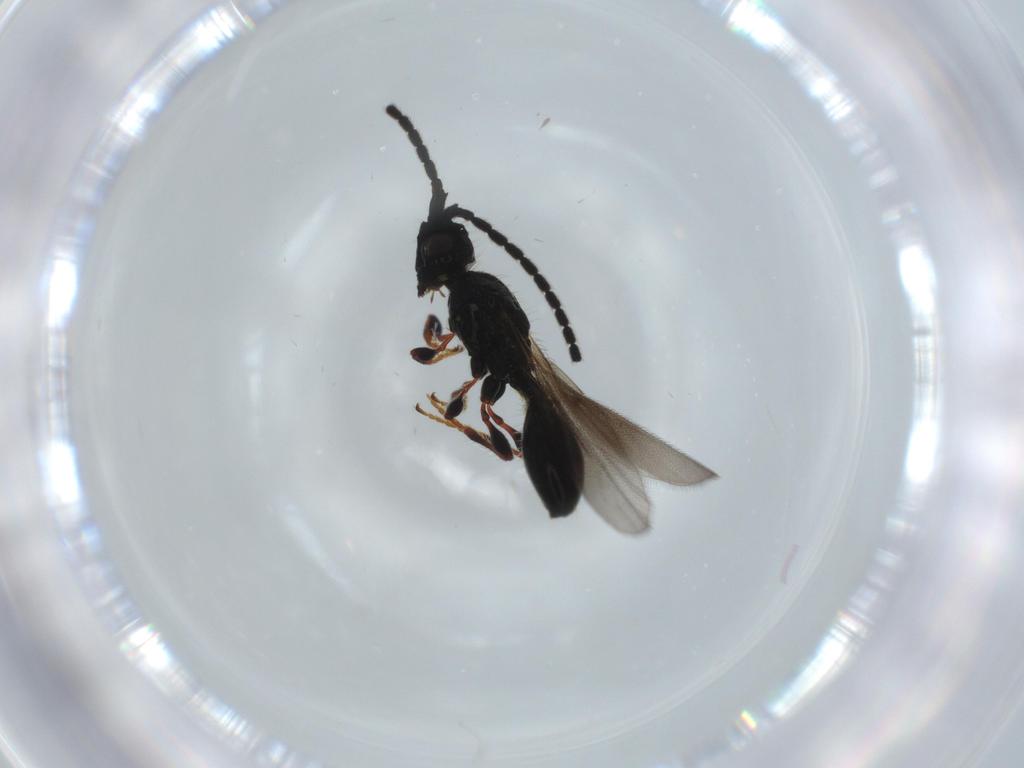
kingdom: Animalia
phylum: Arthropoda
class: Insecta
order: Hymenoptera
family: Diapriidae
